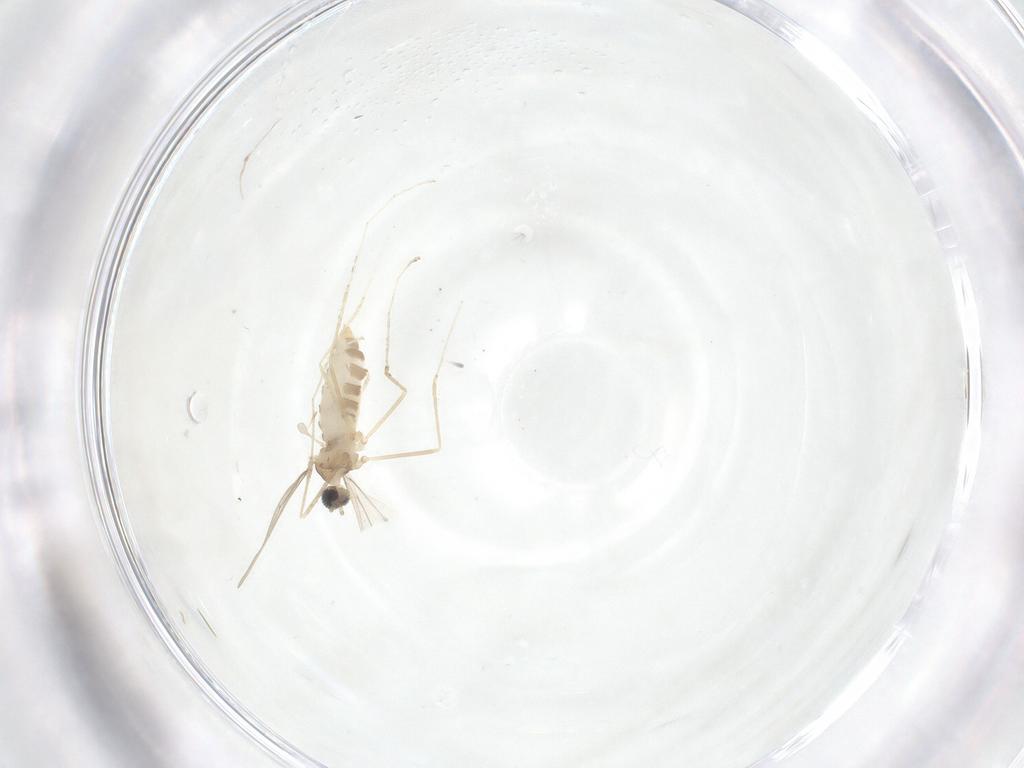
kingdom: Animalia
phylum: Arthropoda
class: Insecta
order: Diptera
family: Cecidomyiidae
